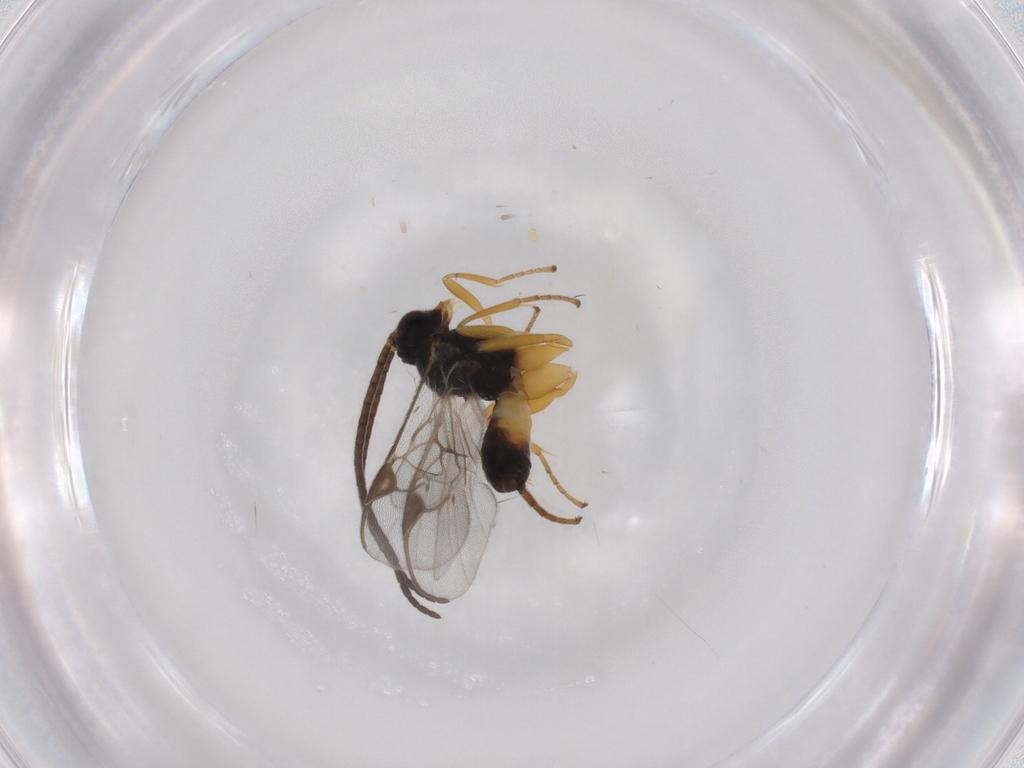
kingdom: Animalia
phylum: Arthropoda
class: Insecta
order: Hymenoptera
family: Braconidae
